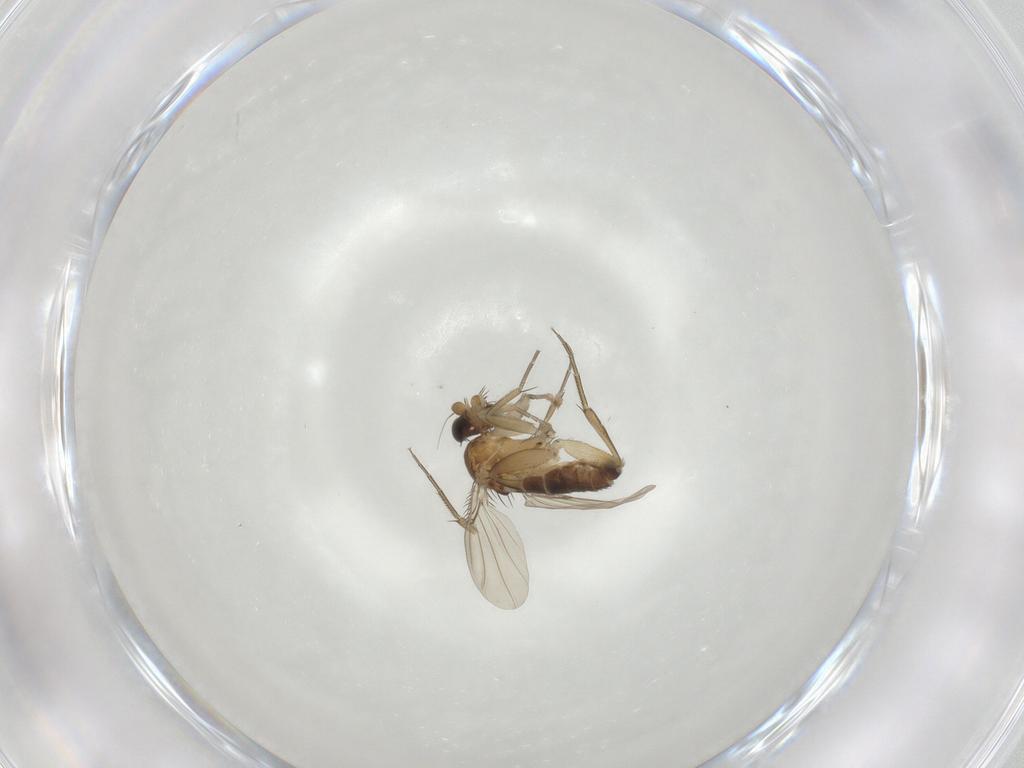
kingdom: Animalia
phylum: Arthropoda
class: Insecta
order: Diptera
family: Phoridae
